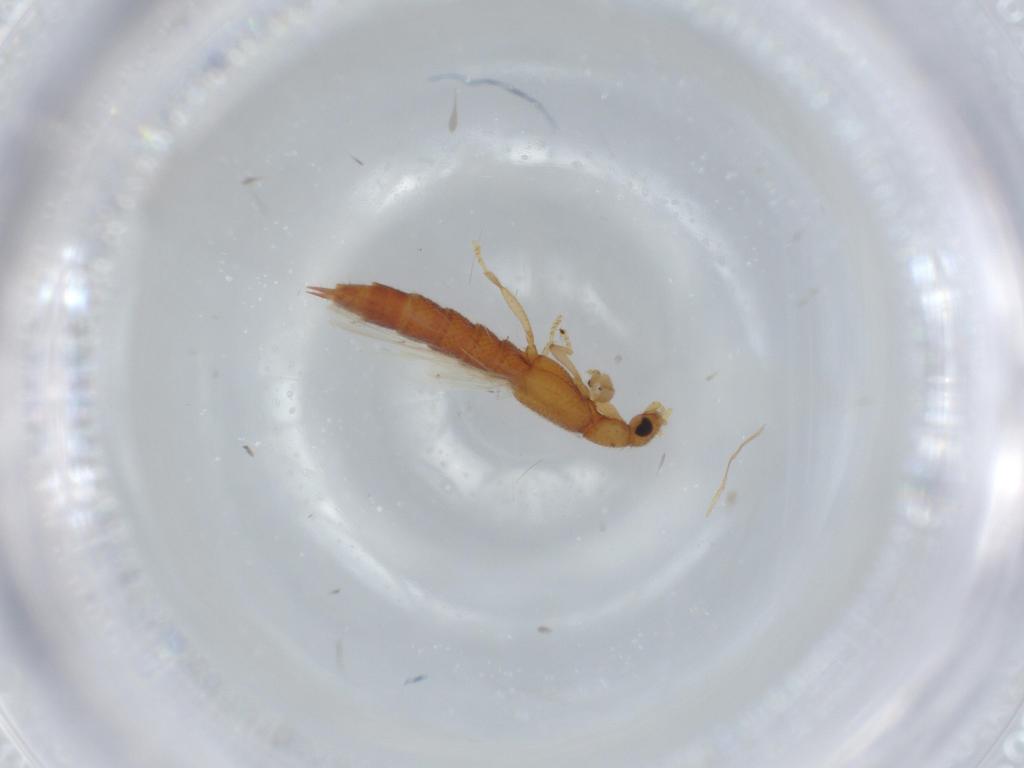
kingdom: Animalia
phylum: Arthropoda
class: Insecta
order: Coleoptera
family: Staphylinidae
